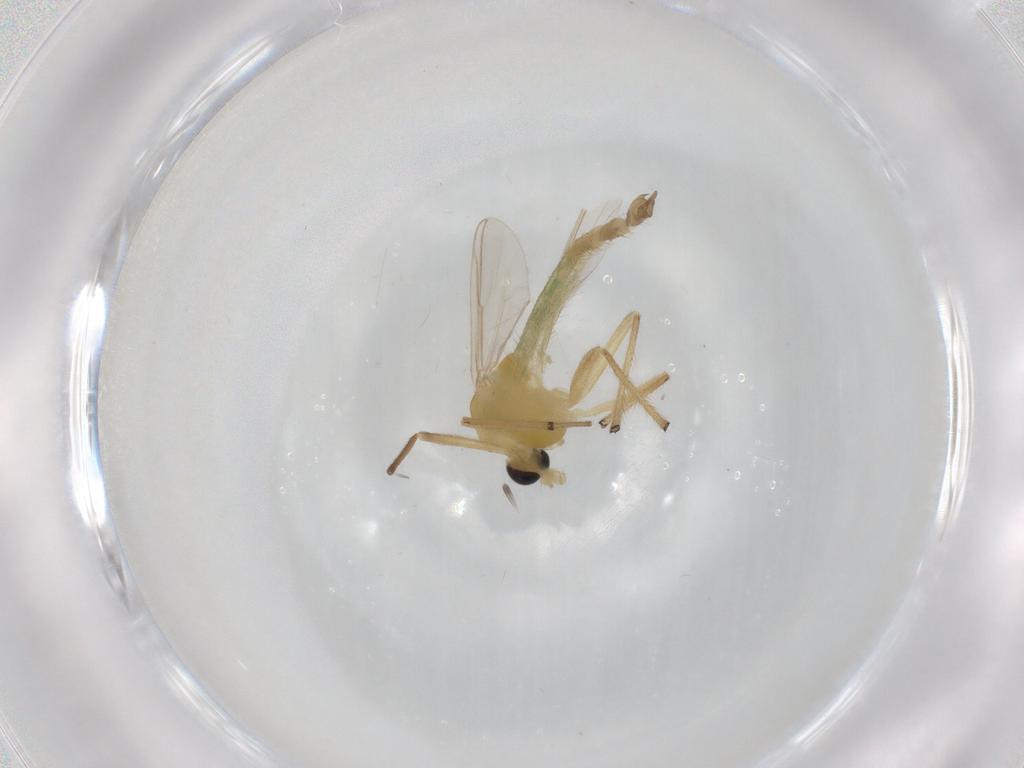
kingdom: Animalia
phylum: Arthropoda
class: Insecta
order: Diptera
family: Chironomidae
